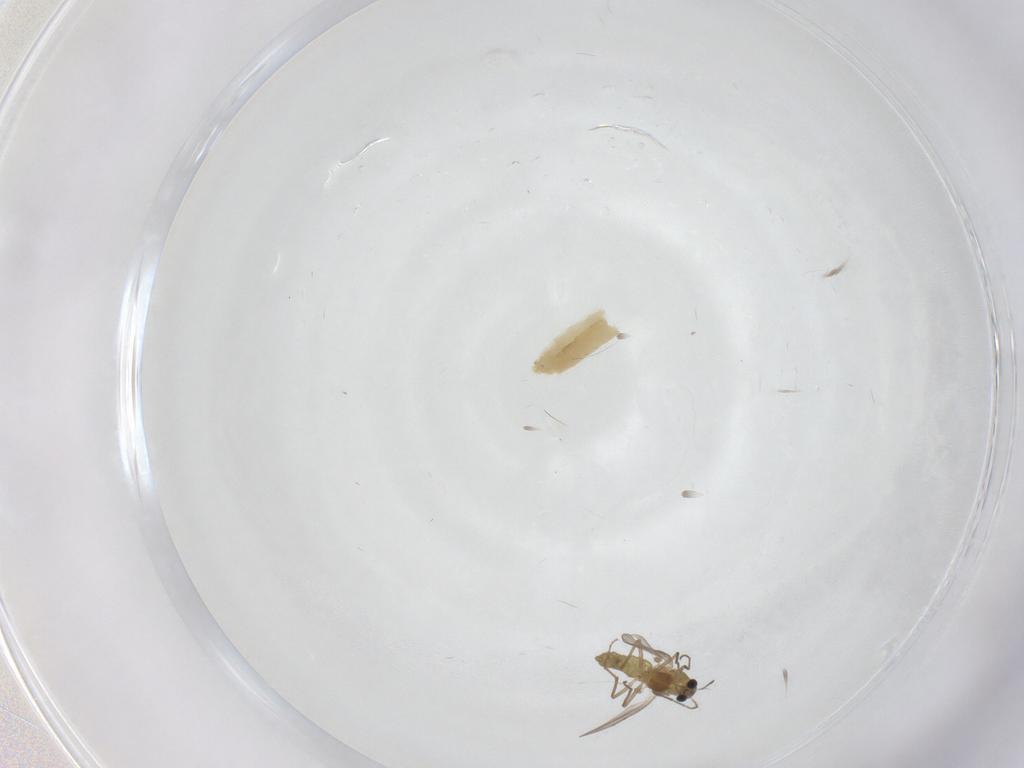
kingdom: Animalia
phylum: Arthropoda
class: Insecta
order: Diptera
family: Chironomidae
